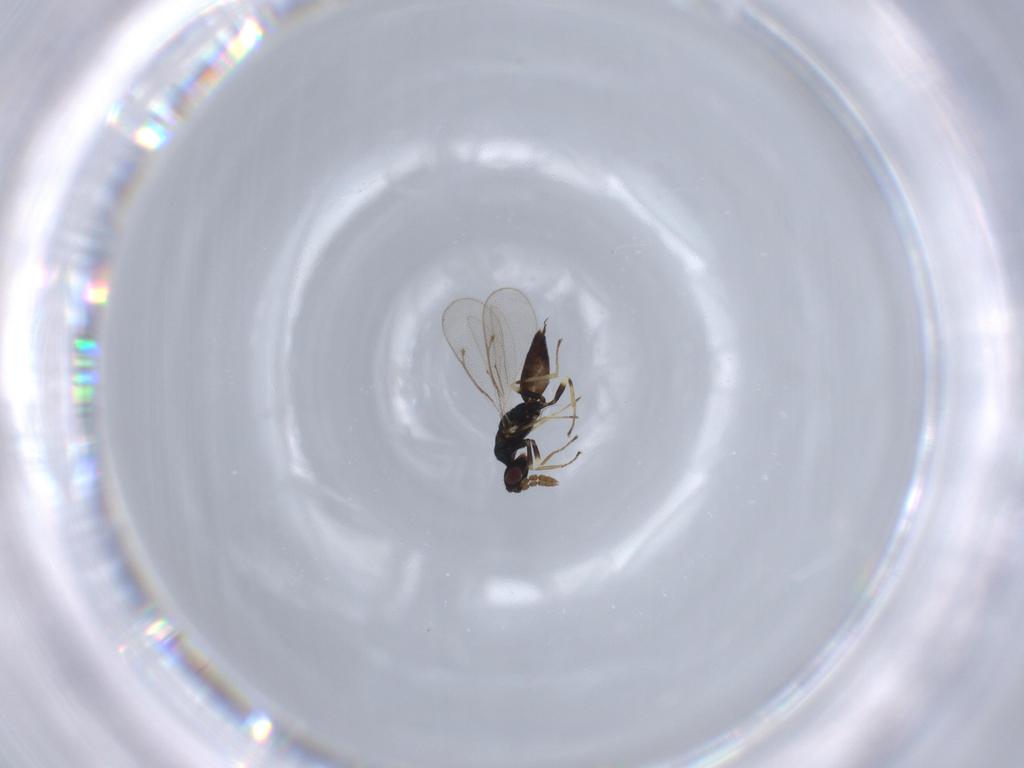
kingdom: Animalia
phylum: Arthropoda
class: Insecta
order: Hymenoptera
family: Eulophidae
